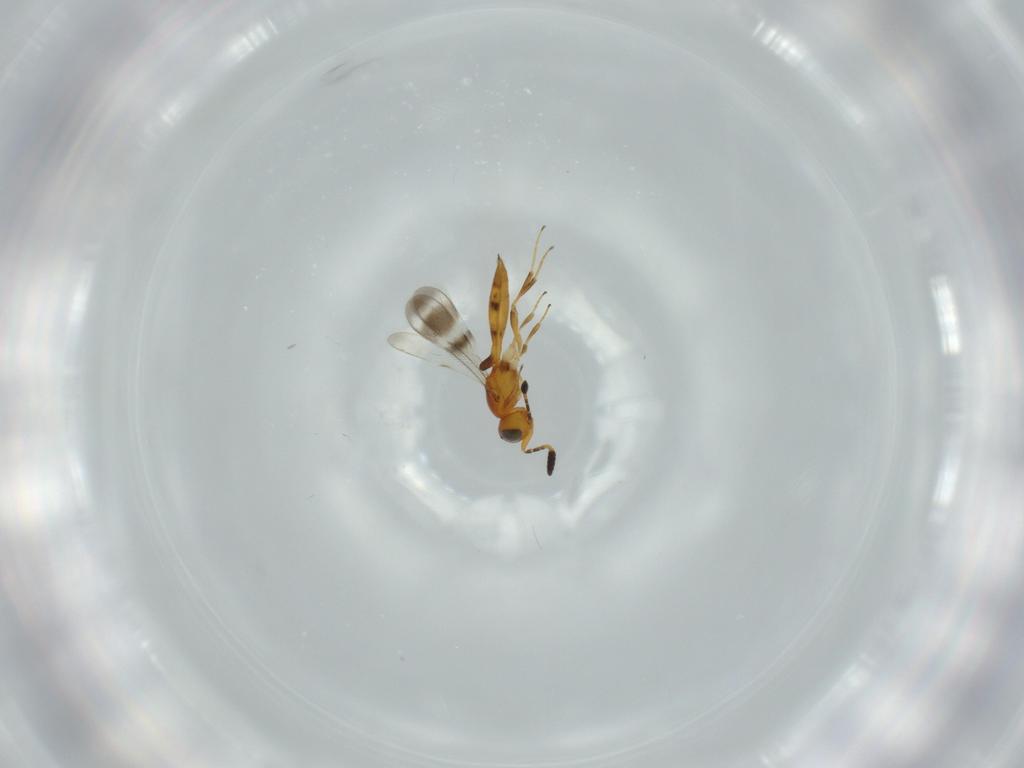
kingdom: Animalia
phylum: Arthropoda
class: Insecta
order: Hymenoptera
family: Scelionidae
